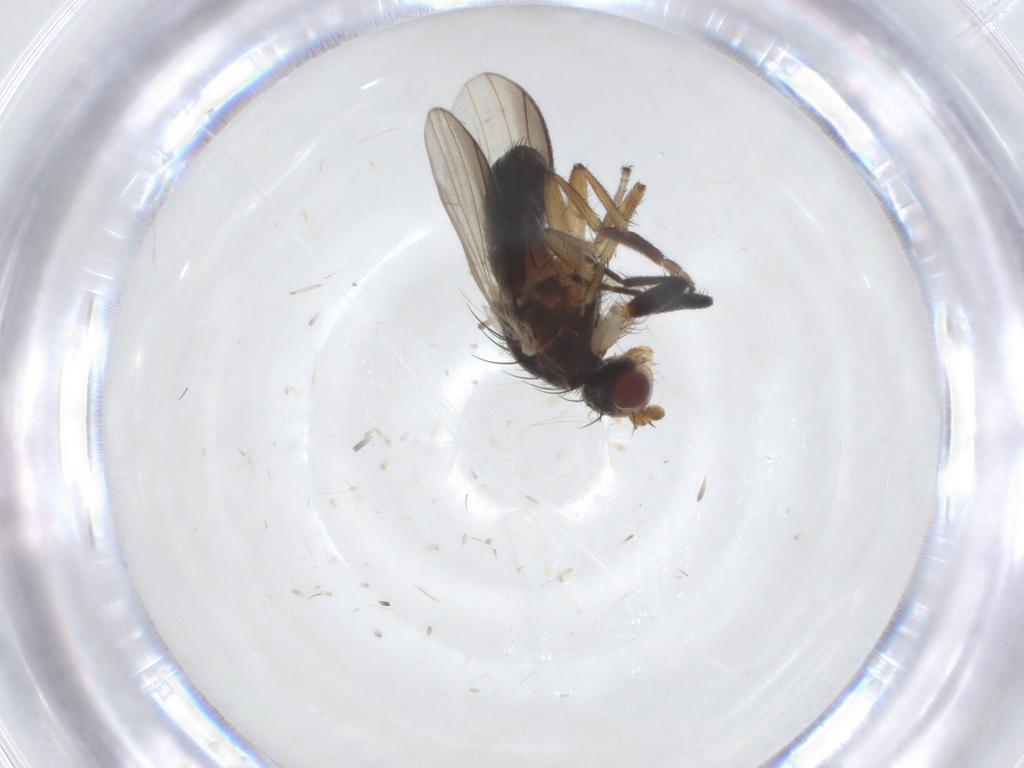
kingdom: Animalia
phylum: Arthropoda
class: Insecta
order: Diptera
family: Heleomyzidae
